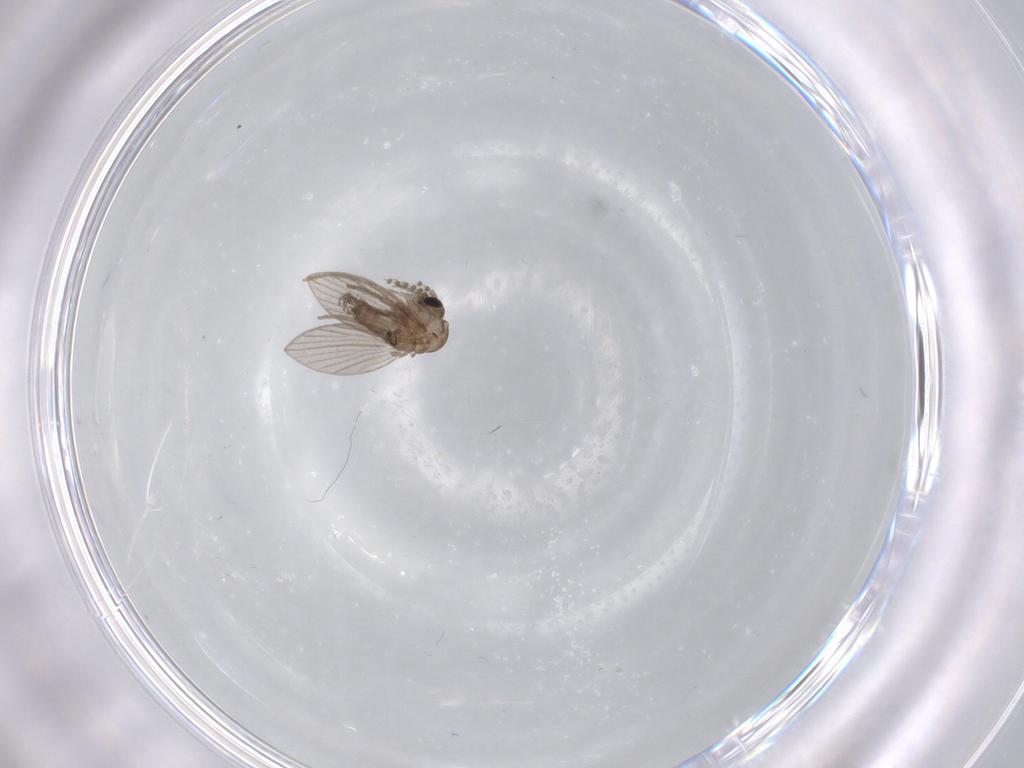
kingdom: Animalia
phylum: Arthropoda
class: Insecta
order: Diptera
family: Psychodidae
